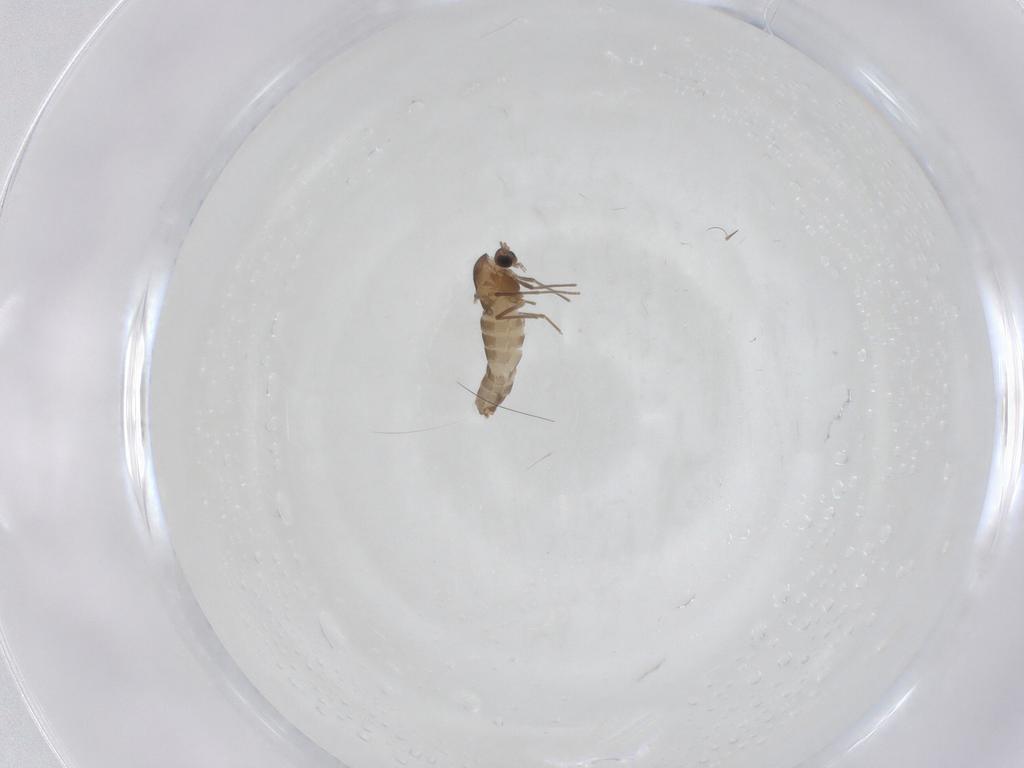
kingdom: Animalia
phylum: Arthropoda
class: Insecta
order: Diptera
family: Chironomidae
